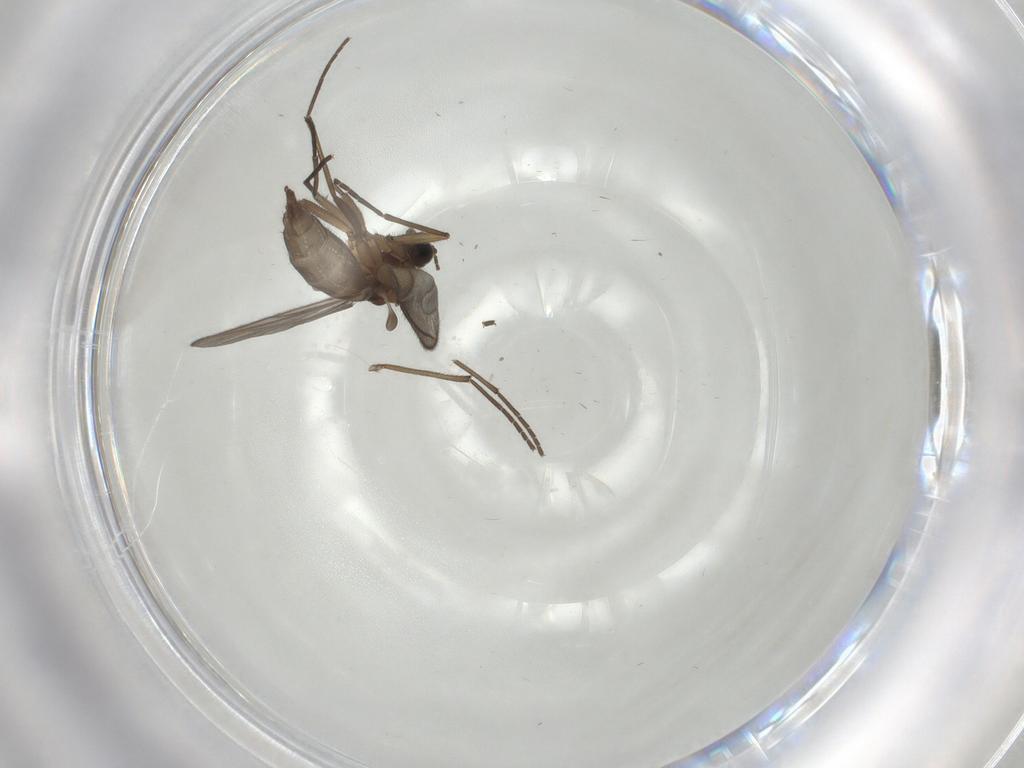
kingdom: Animalia
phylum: Arthropoda
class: Insecta
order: Diptera
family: Sciaridae
